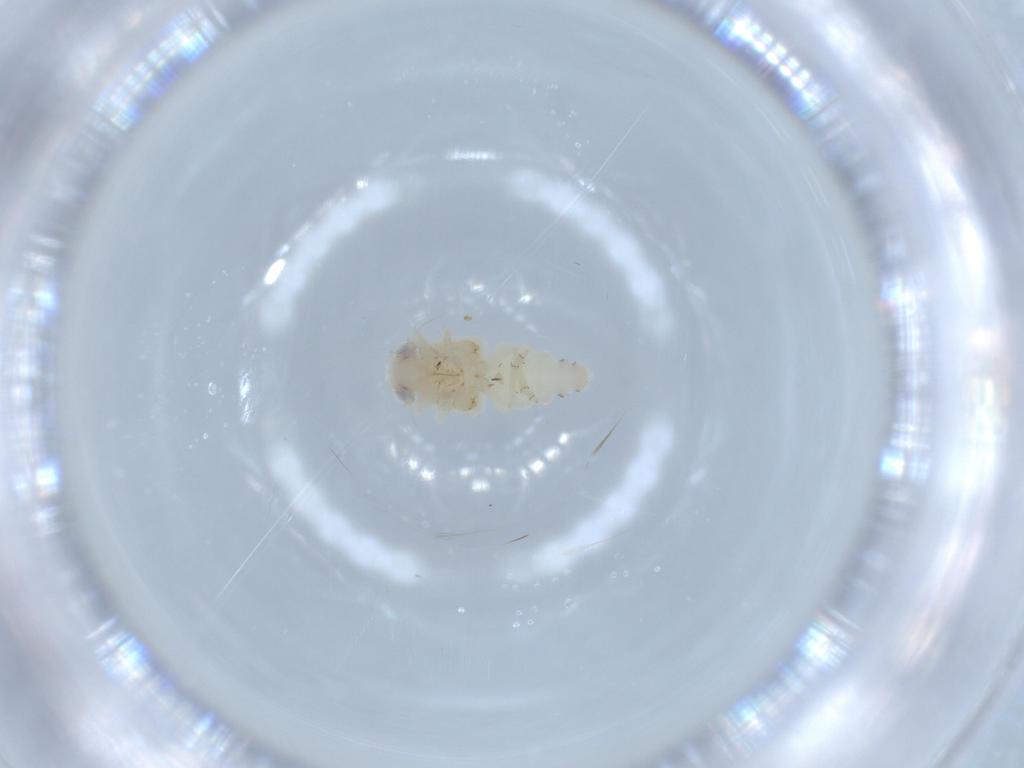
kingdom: Animalia
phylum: Arthropoda
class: Insecta
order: Hemiptera
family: Nogodinidae
